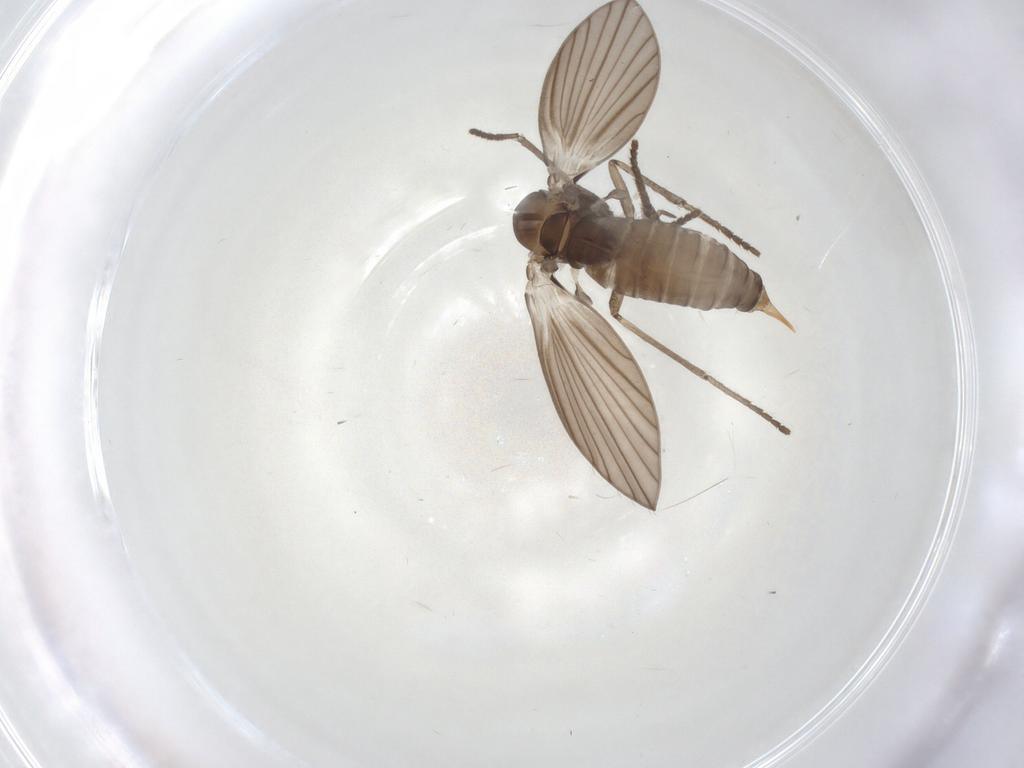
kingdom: Animalia
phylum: Arthropoda
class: Insecta
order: Diptera
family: Psychodidae
